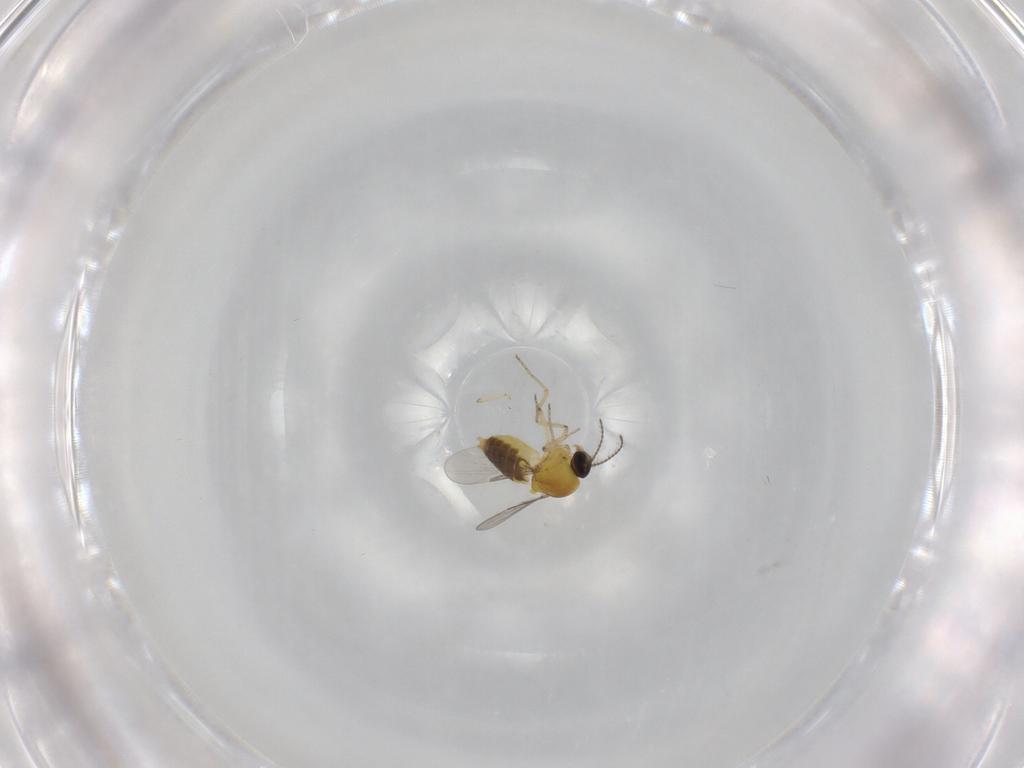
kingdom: Animalia
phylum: Arthropoda
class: Insecta
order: Diptera
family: Ceratopogonidae
